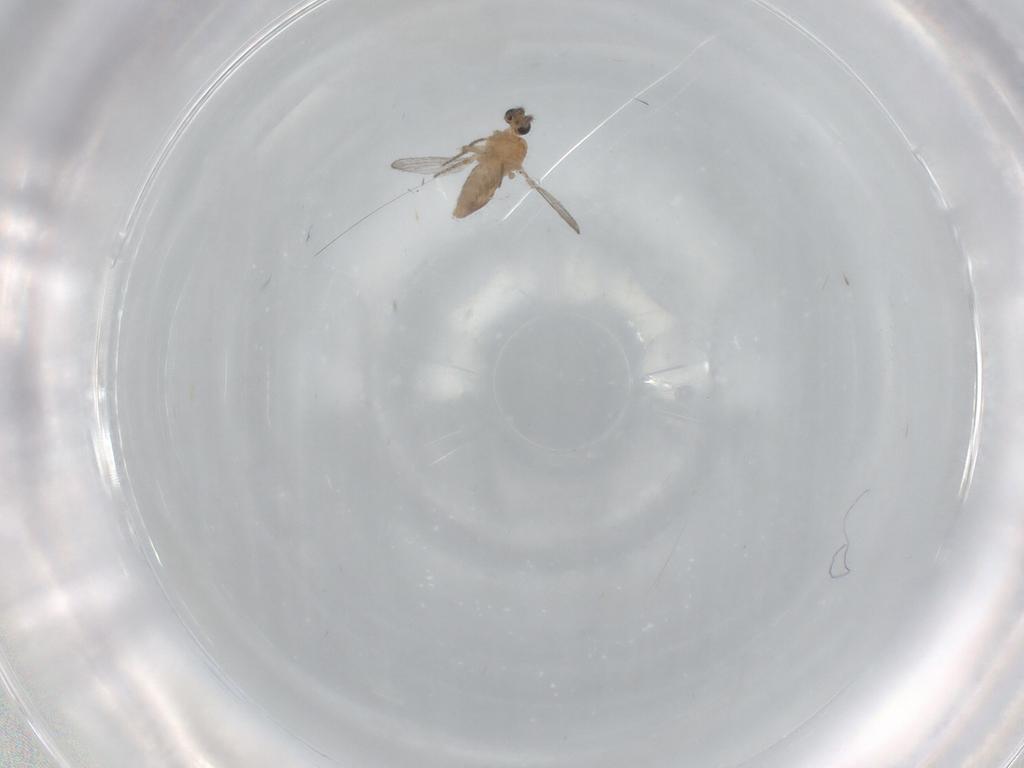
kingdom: Animalia
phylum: Arthropoda
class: Insecta
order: Diptera
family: Ceratopogonidae
